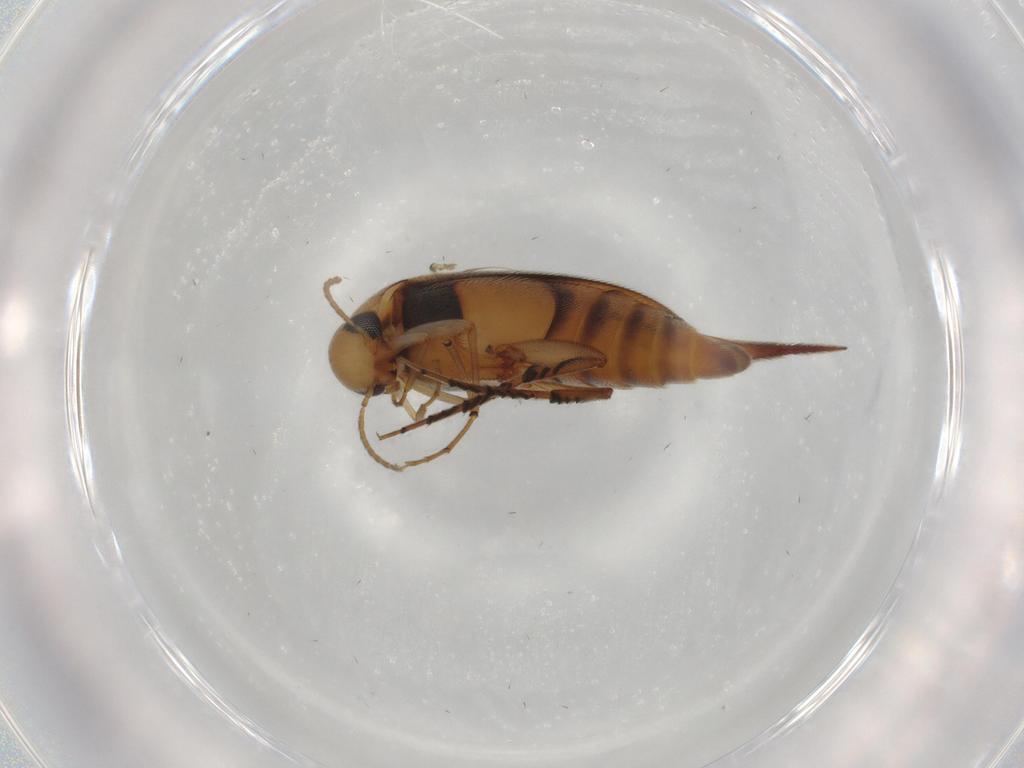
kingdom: Animalia
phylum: Arthropoda
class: Insecta
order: Coleoptera
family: Mordellidae
